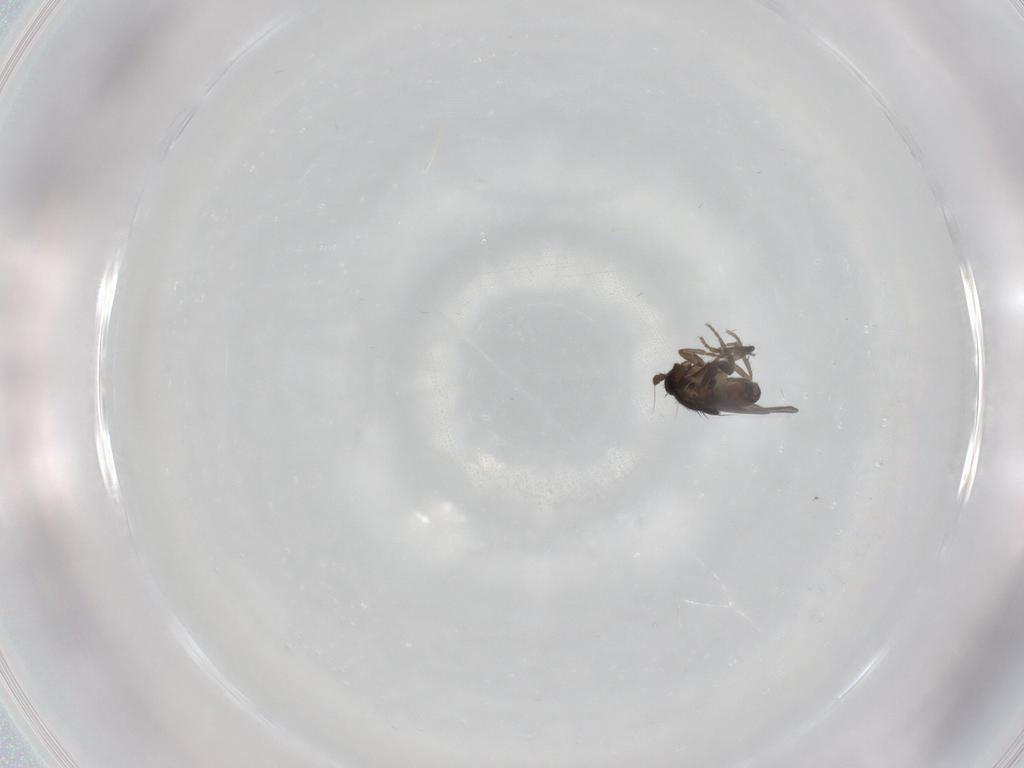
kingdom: Animalia
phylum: Arthropoda
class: Insecta
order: Diptera
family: Sphaeroceridae
